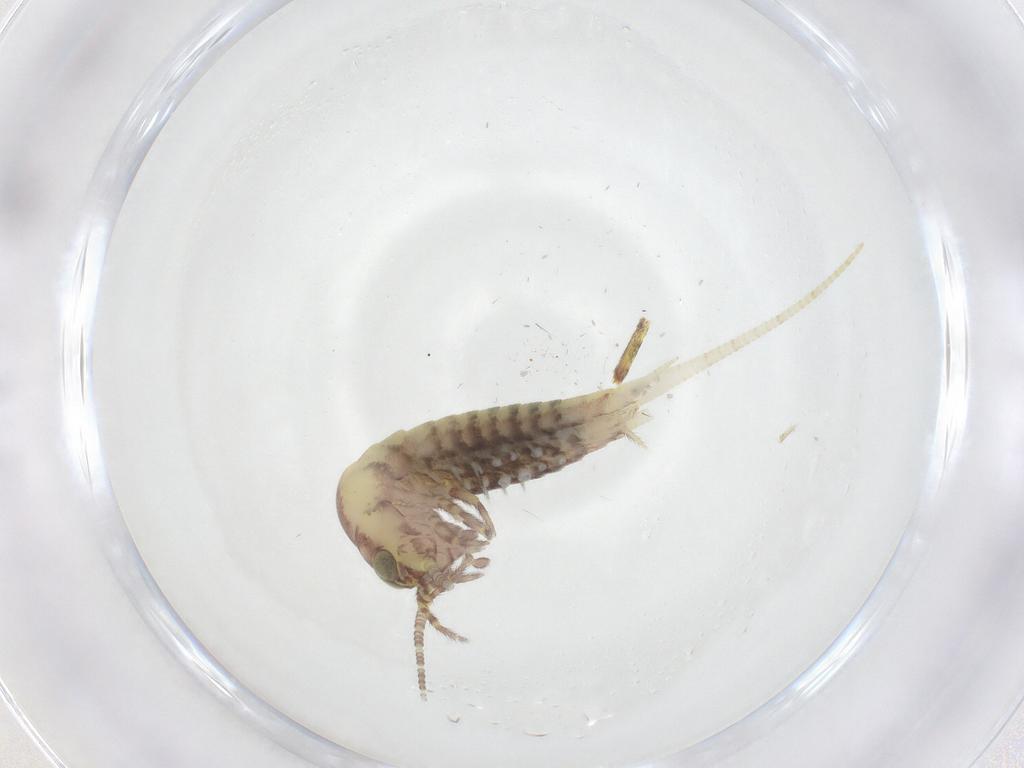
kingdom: Animalia
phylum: Arthropoda
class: Insecta
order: Archaeognatha
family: Meinertellidae
